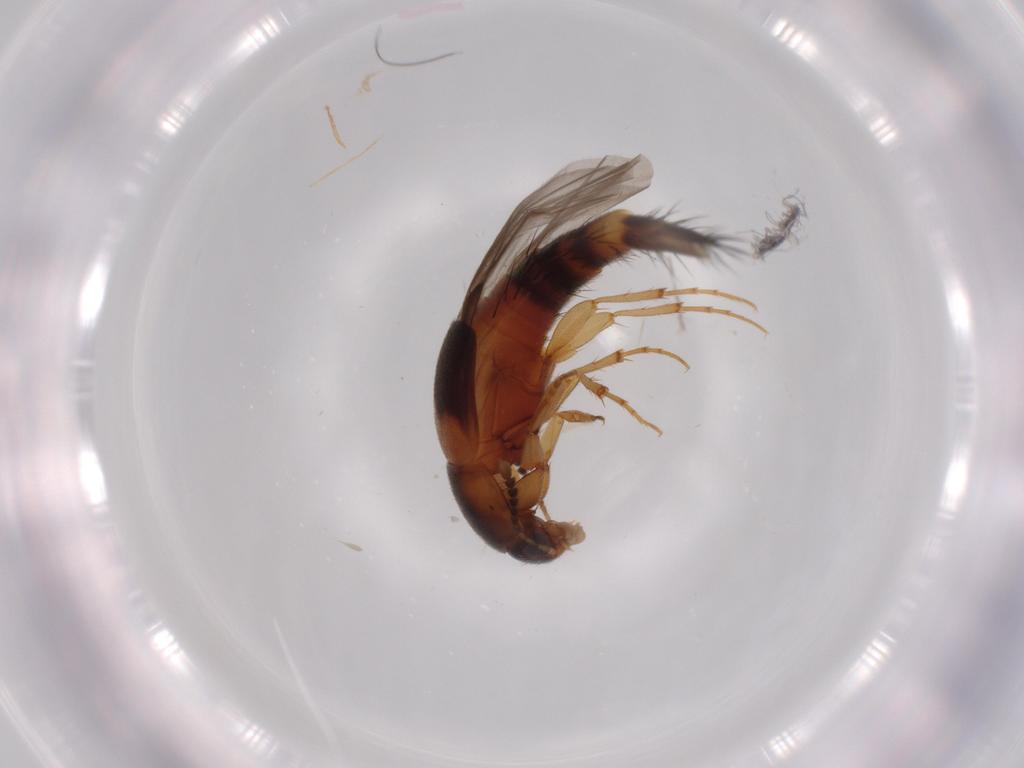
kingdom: Animalia
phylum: Arthropoda
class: Insecta
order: Coleoptera
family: Staphylinidae
